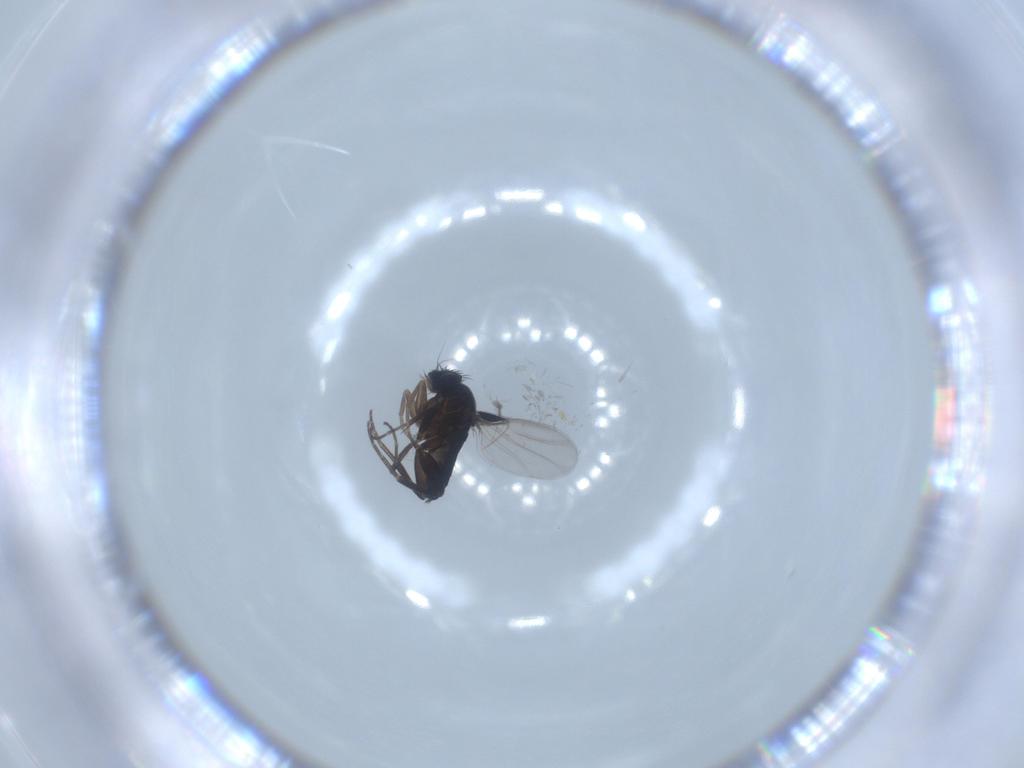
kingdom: Animalia
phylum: Arthropoda
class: Insecta
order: Diptera
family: Phoridae
